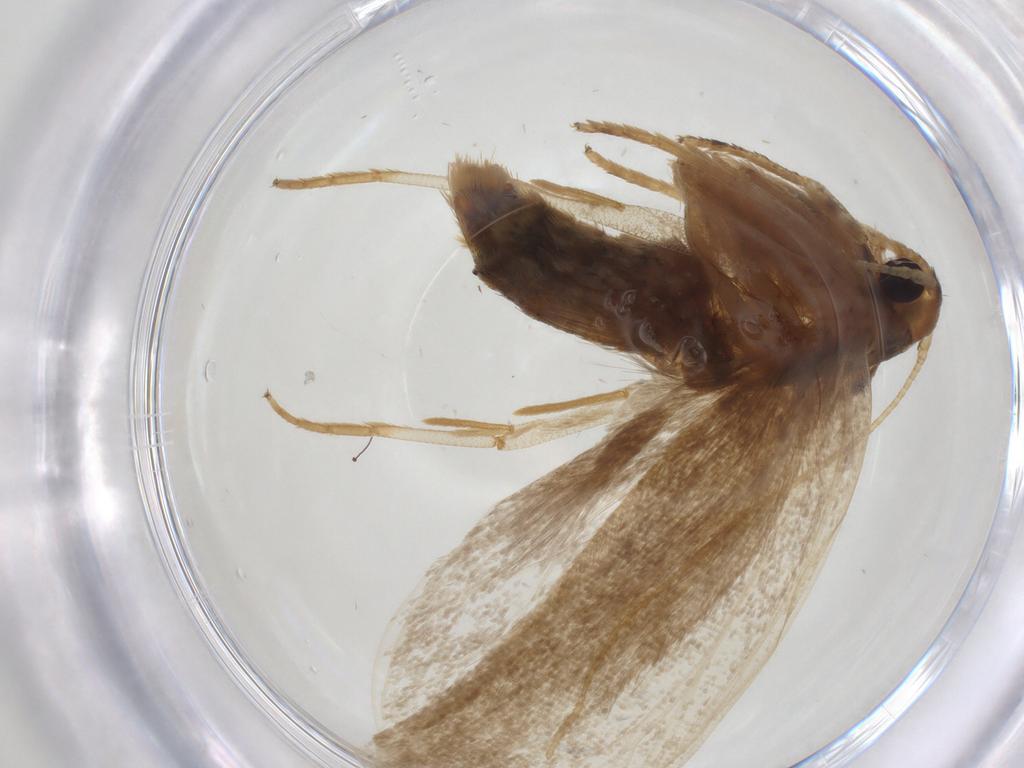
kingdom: Animalia
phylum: Arthropoda
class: Insecta
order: Lepidoptera
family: Lecithoceridae
